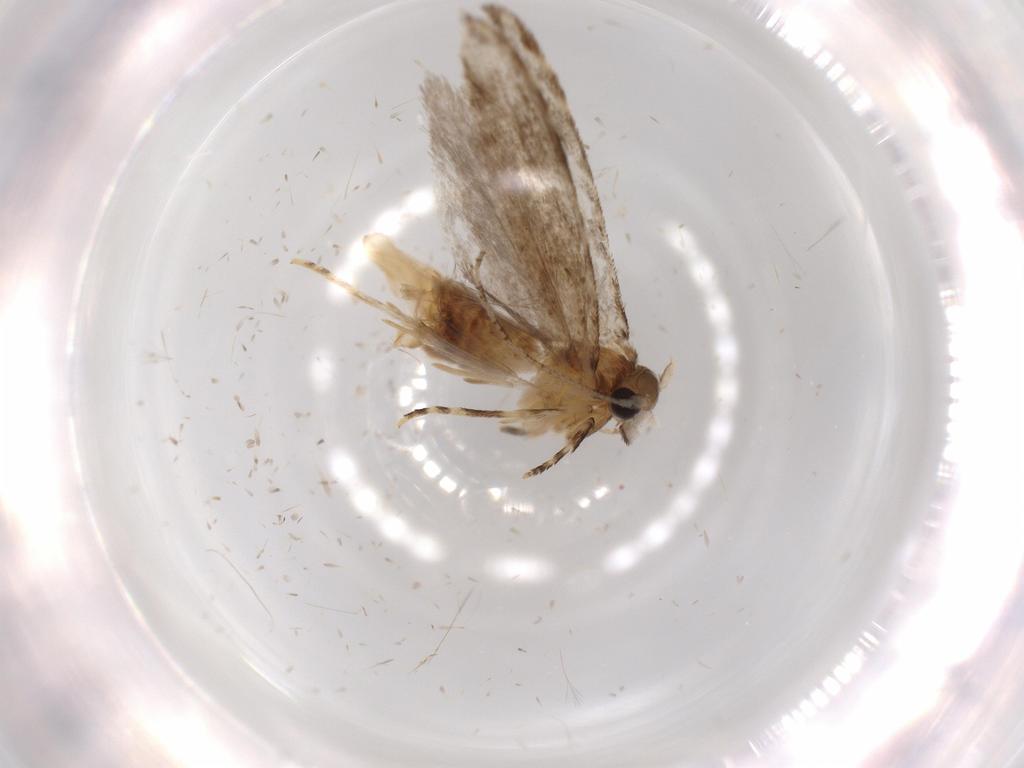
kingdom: Animalia
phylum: Arthropoda
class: Insecta
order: Lepidoptera
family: Tineidae
